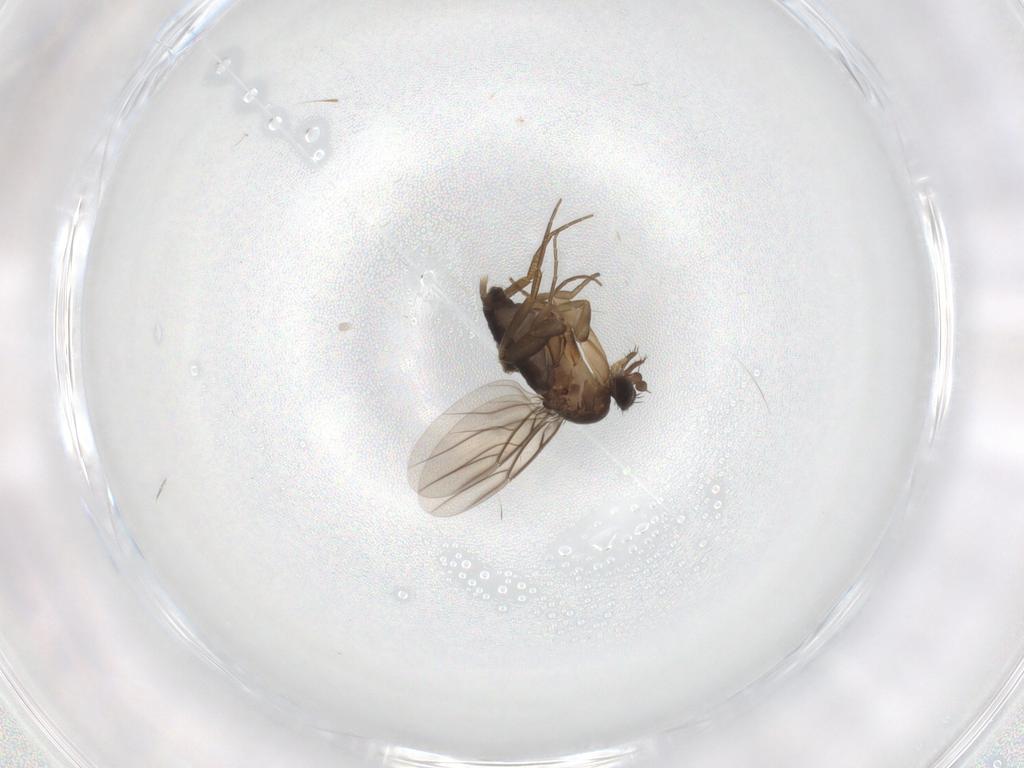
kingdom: Animalia
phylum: Arthropoda
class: Insecta
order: Diptera
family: Phoridae
